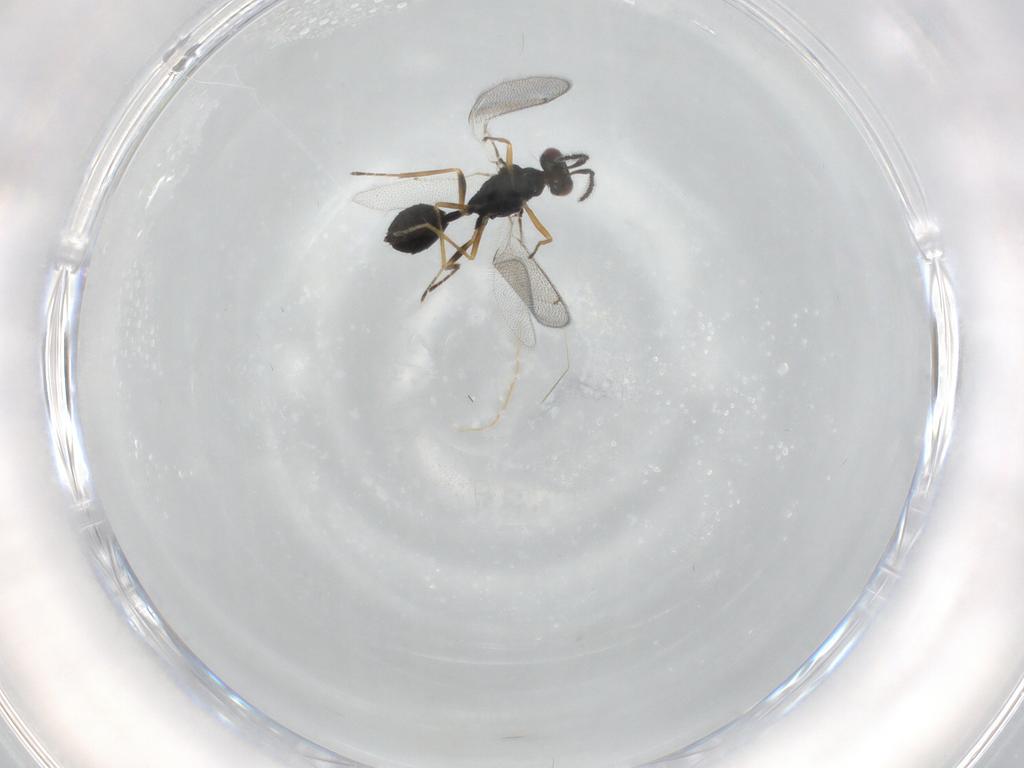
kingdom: Animalia
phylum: Arthropoda
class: Insecta
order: Hymenoptera
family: Eulophidae
